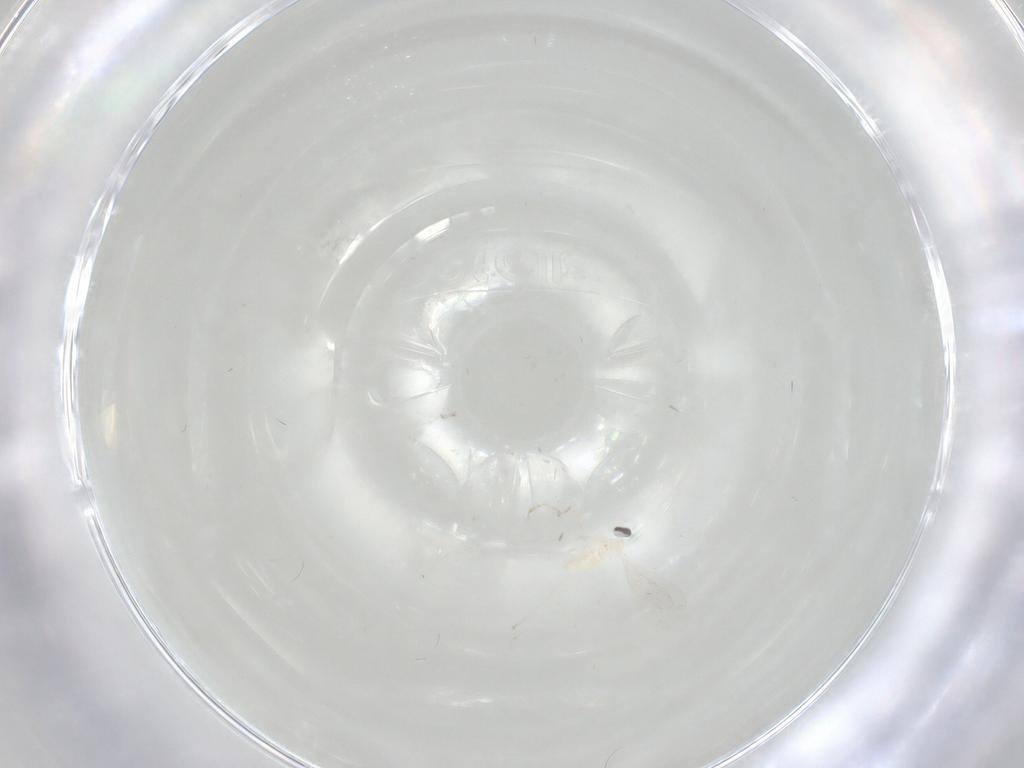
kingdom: Animalia
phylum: Arthropoda
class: Insecta
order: Diptera
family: Cecidomyiidae
